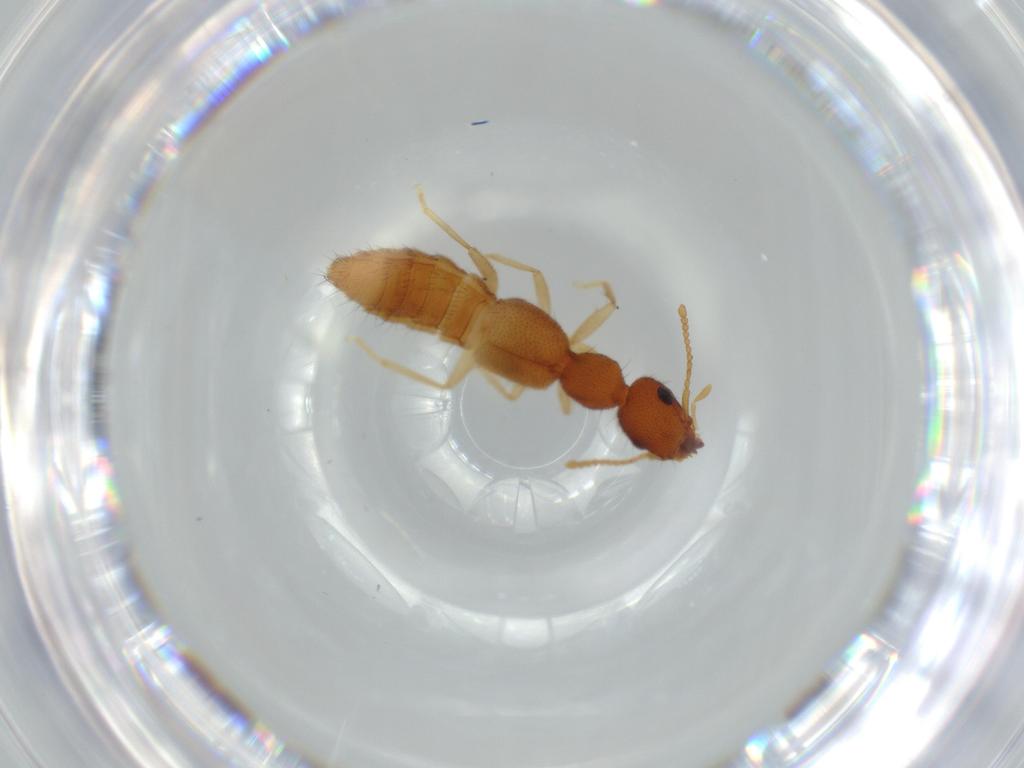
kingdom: Animalia
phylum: Arthropoda
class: Insecta
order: Coleoptera
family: Staphylinidae
